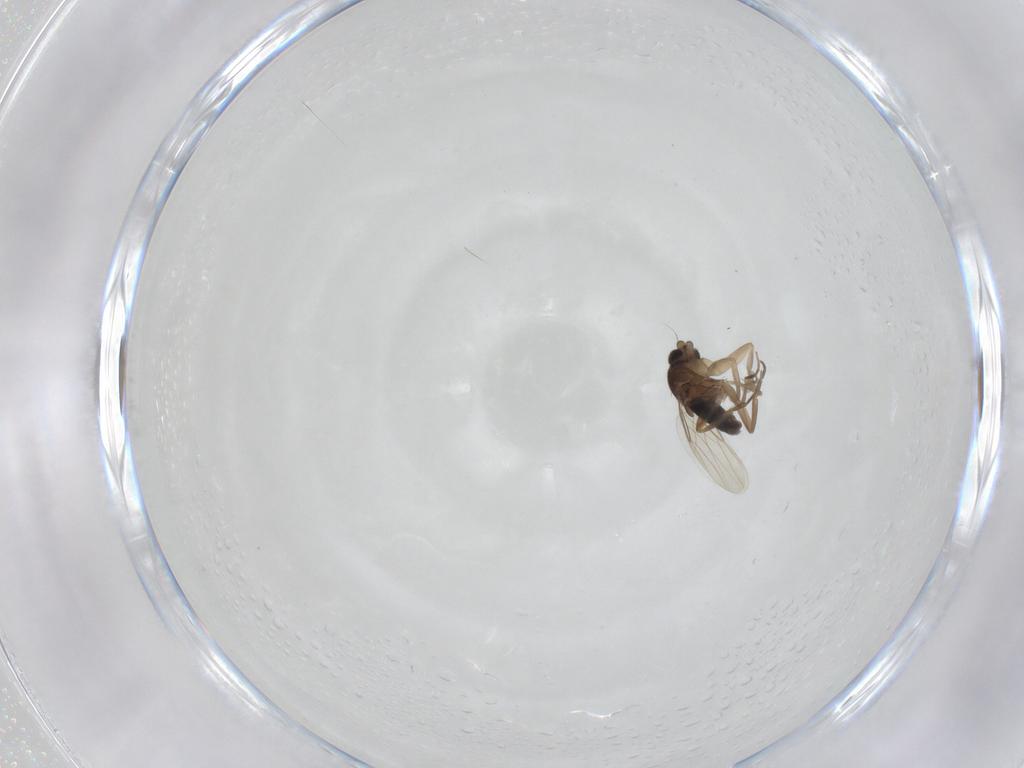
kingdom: Animalia
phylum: Arthropoda
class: Insecta
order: Diptera
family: Phoridae
